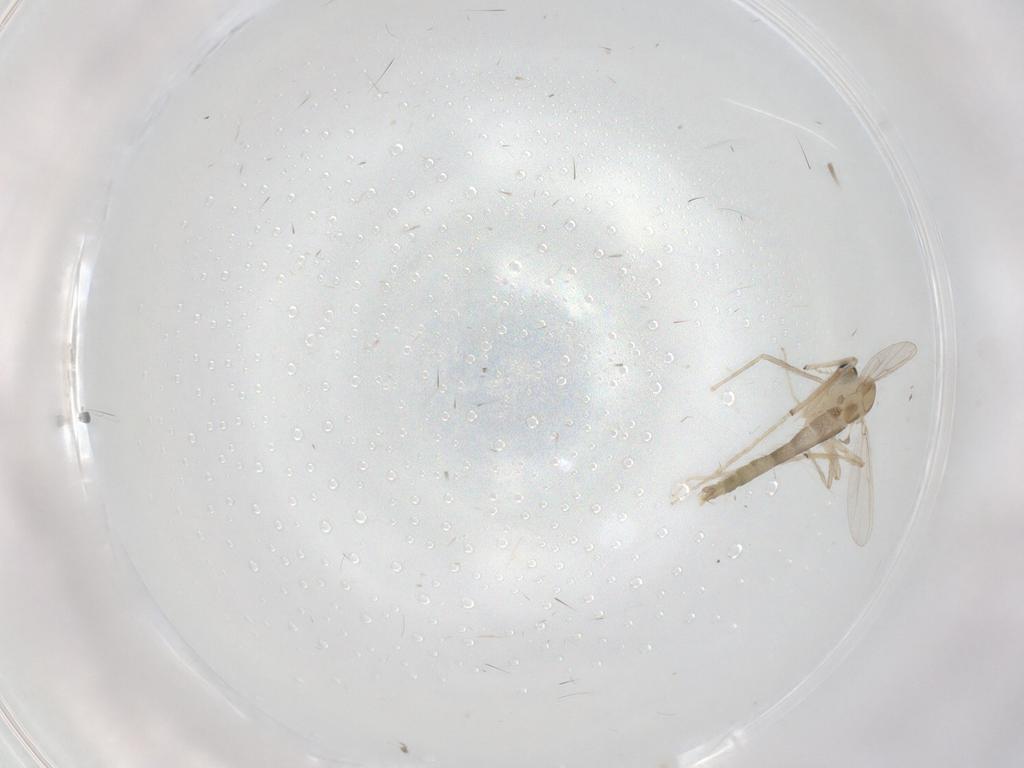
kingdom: Animalia
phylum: Arthropoda
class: Insecta
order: Diptera
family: Chironomidae
